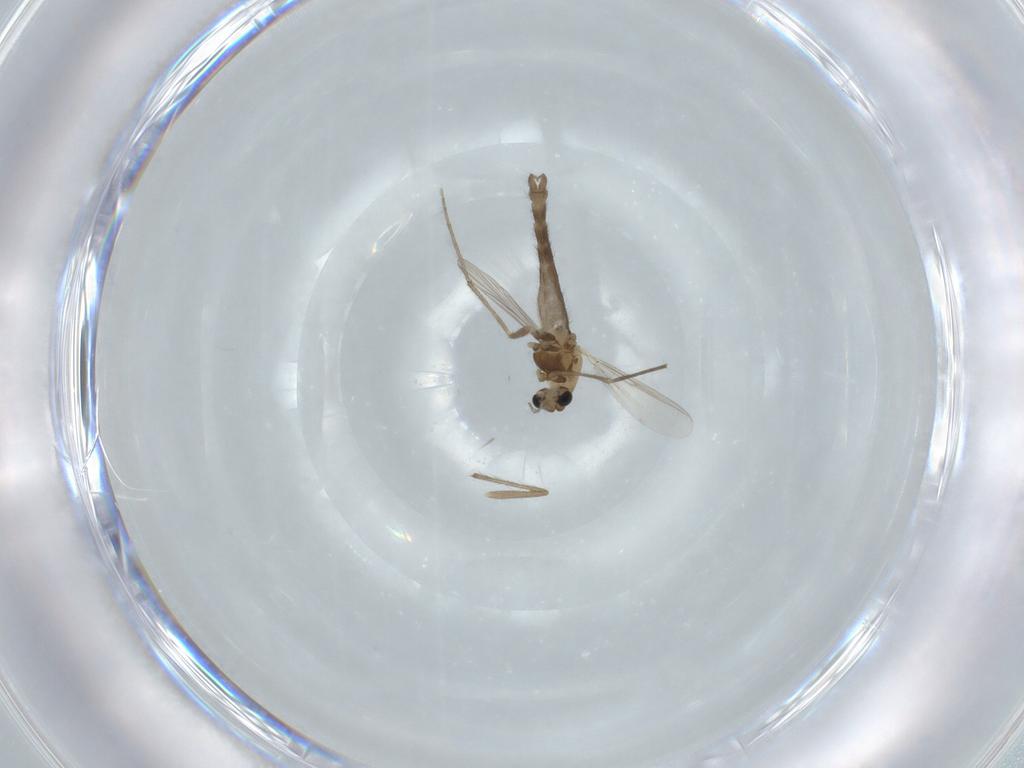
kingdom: Animalia
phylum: Arthropoda
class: Insecta
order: Diptera
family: Chironomidae
